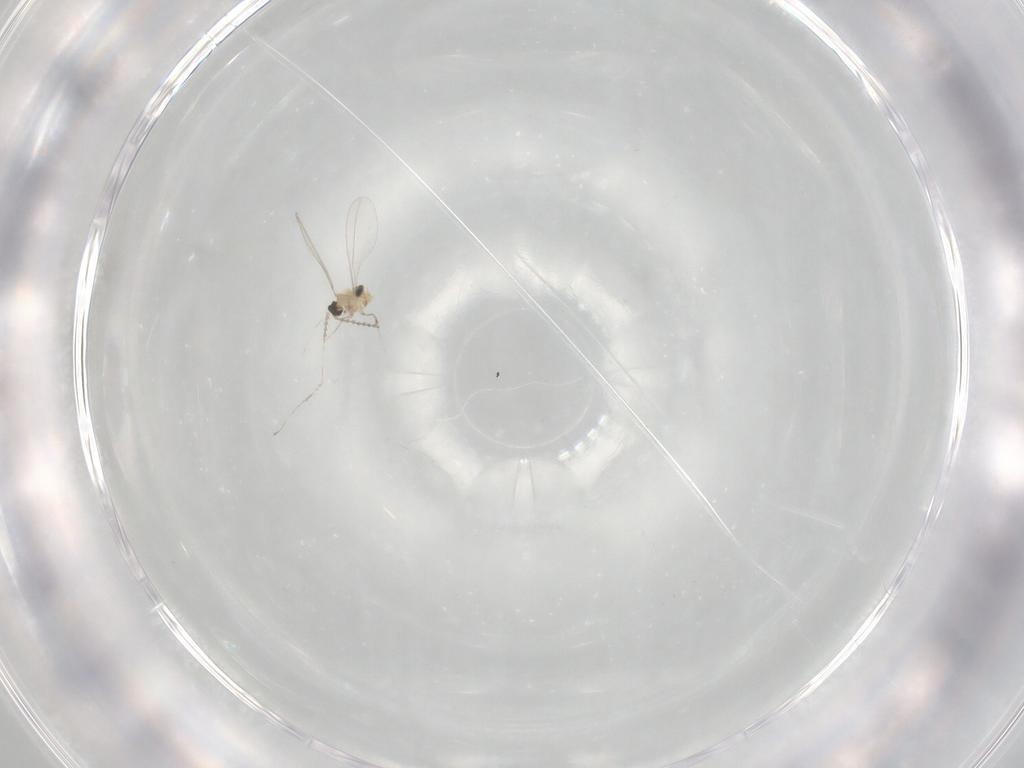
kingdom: Animalia
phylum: Arthropoda
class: Insecta
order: Diptera
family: Cecidomyiidae
